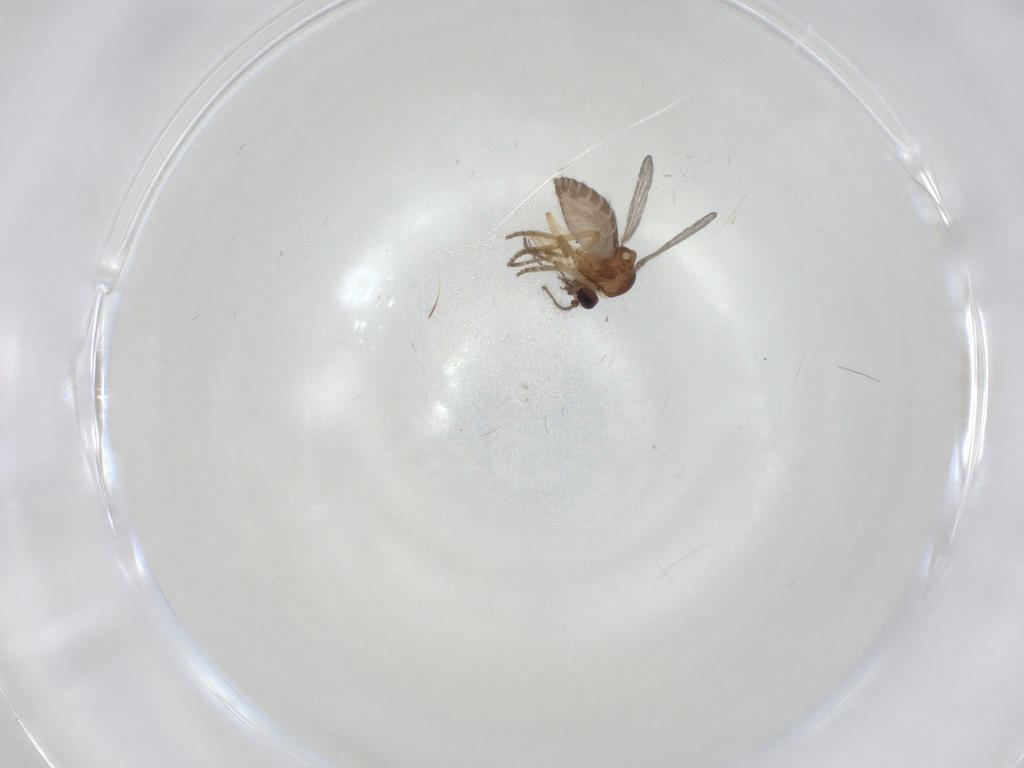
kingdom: Animalia
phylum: Arthropoda
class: Insecta
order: Diptera
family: Ceratopogonidae
